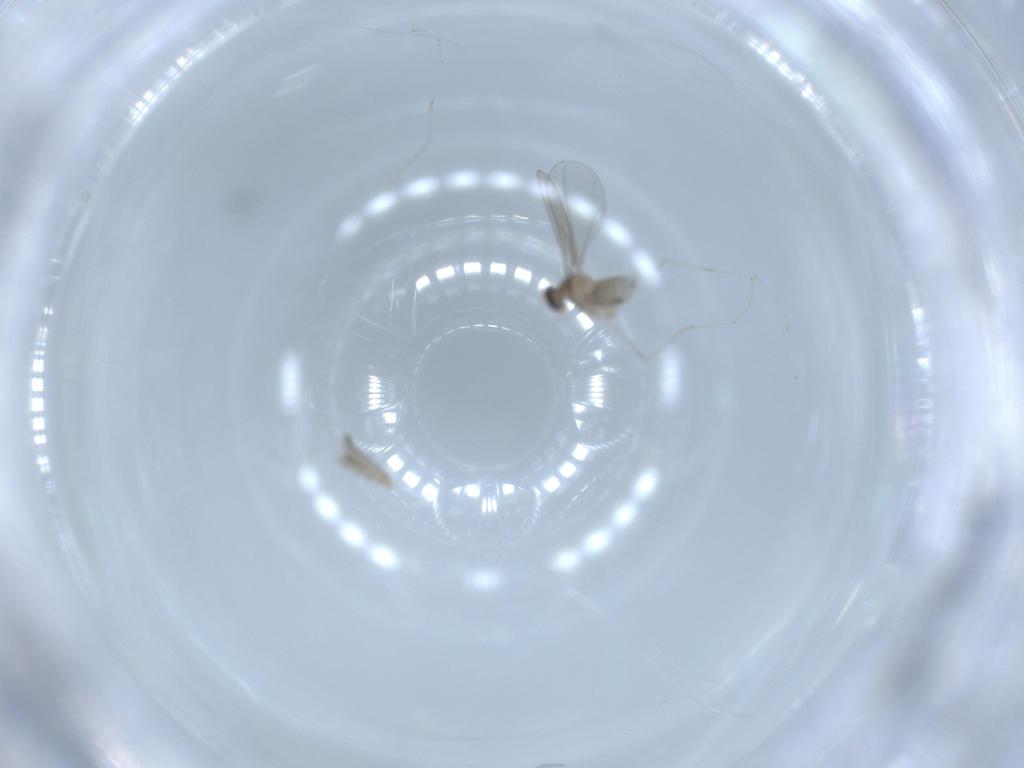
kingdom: Animalia
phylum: Arthropoda
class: Insecta
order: Diptera
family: Cecidomyiidae
